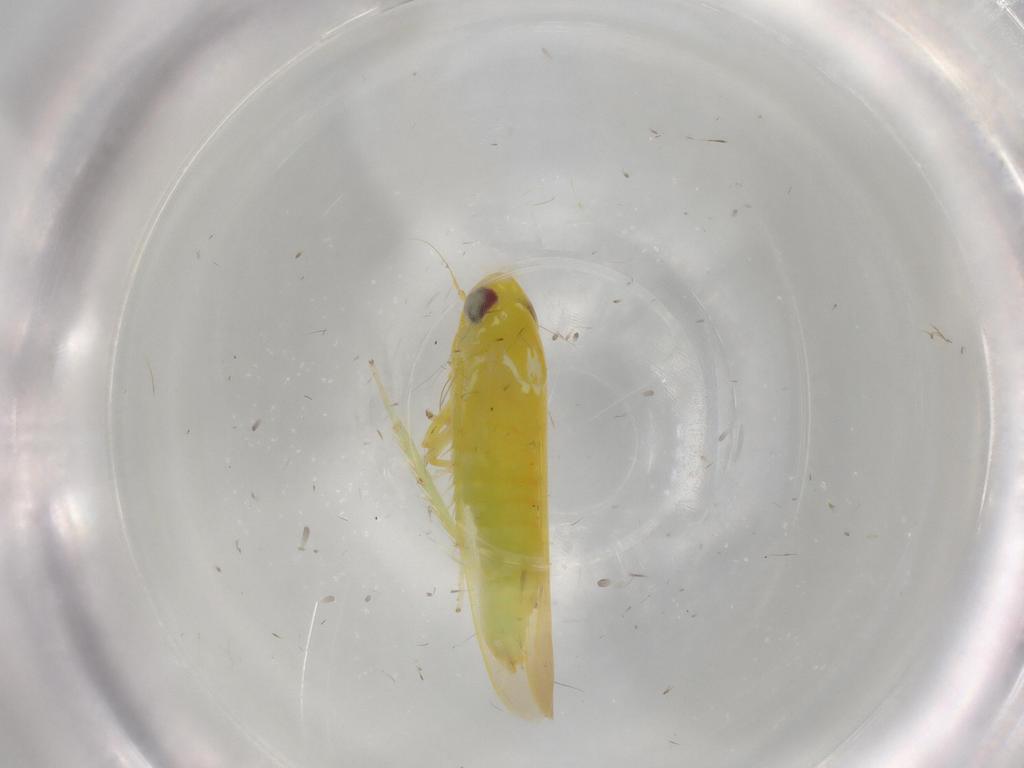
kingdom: Animalia
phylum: Arthropoda
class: Insecta
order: Hemiptera
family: Cicadellidae
